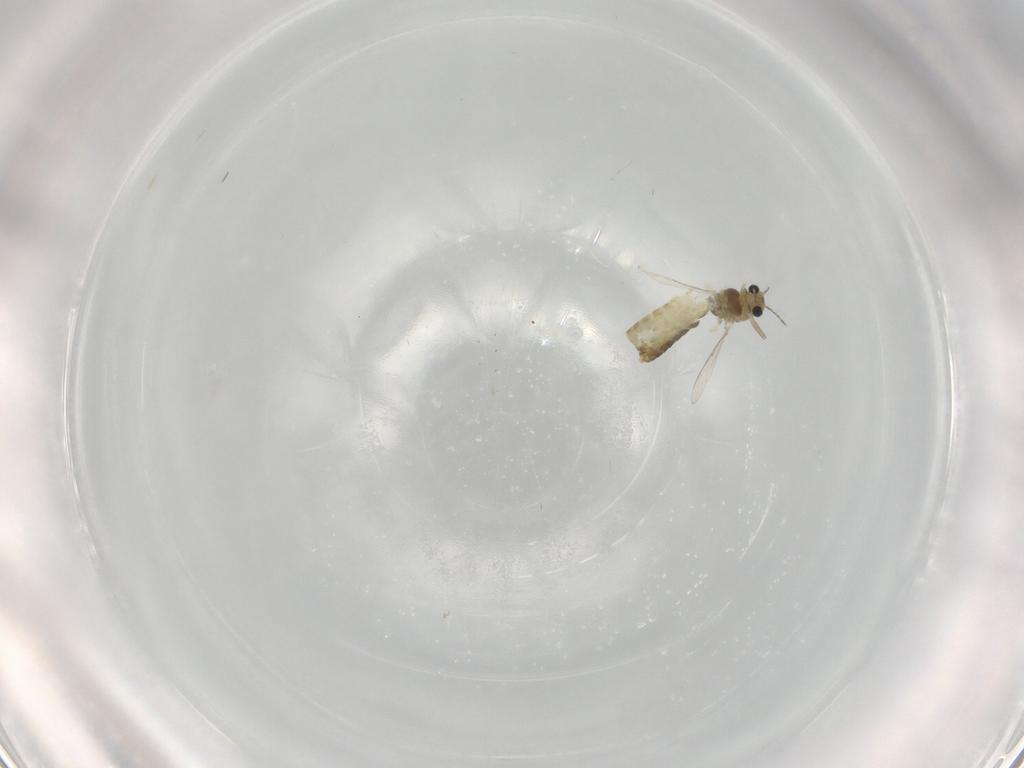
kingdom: Animalia
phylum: Arthropoda
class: Insecta
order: Diptera
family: Chironomidae
